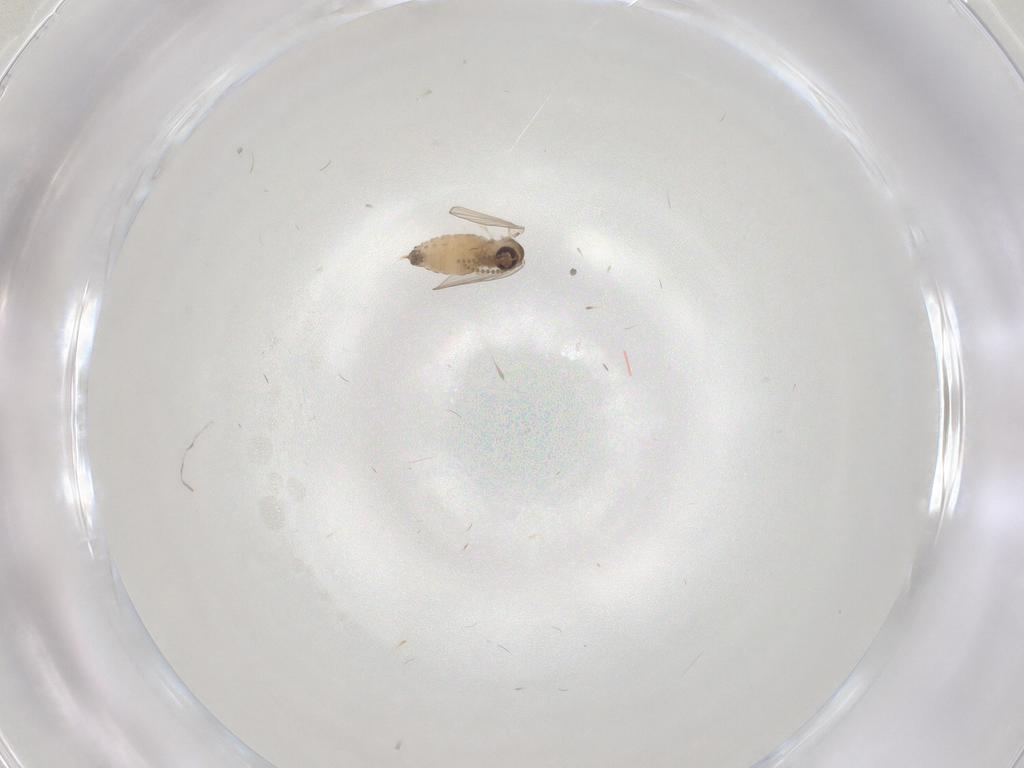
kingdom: Animalia
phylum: Arthropoda
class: Insecta
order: Diptera
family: Psychodidae
